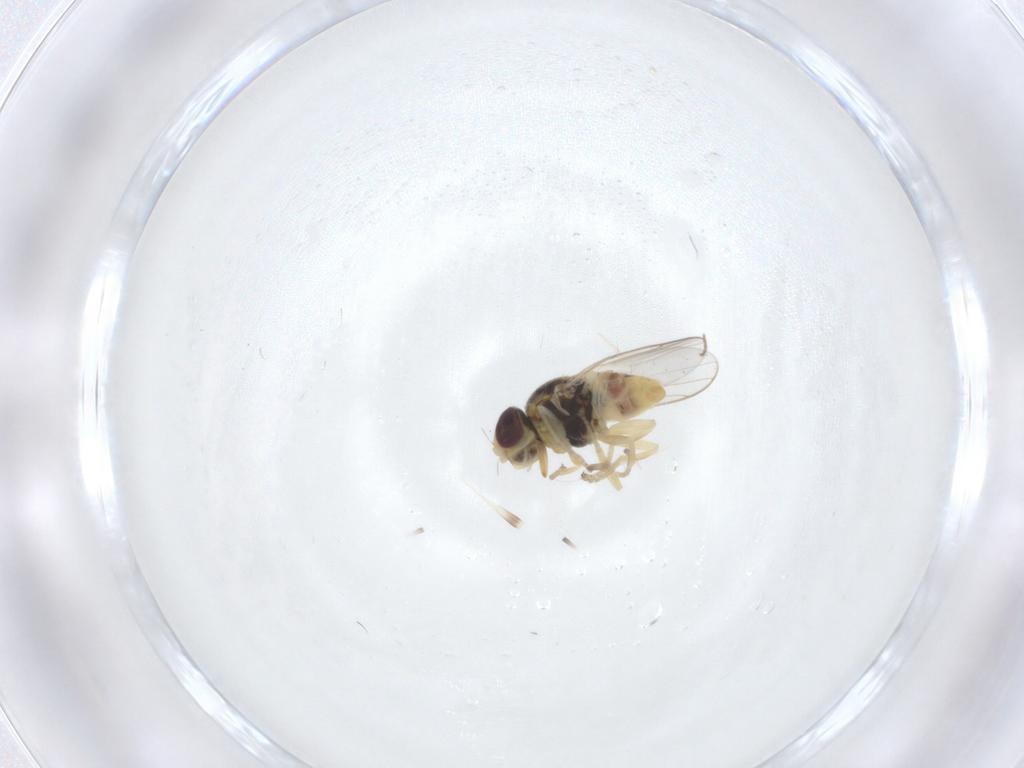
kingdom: Animalia
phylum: Arthropoda
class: Insecta
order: Diptera
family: Chloropidae
